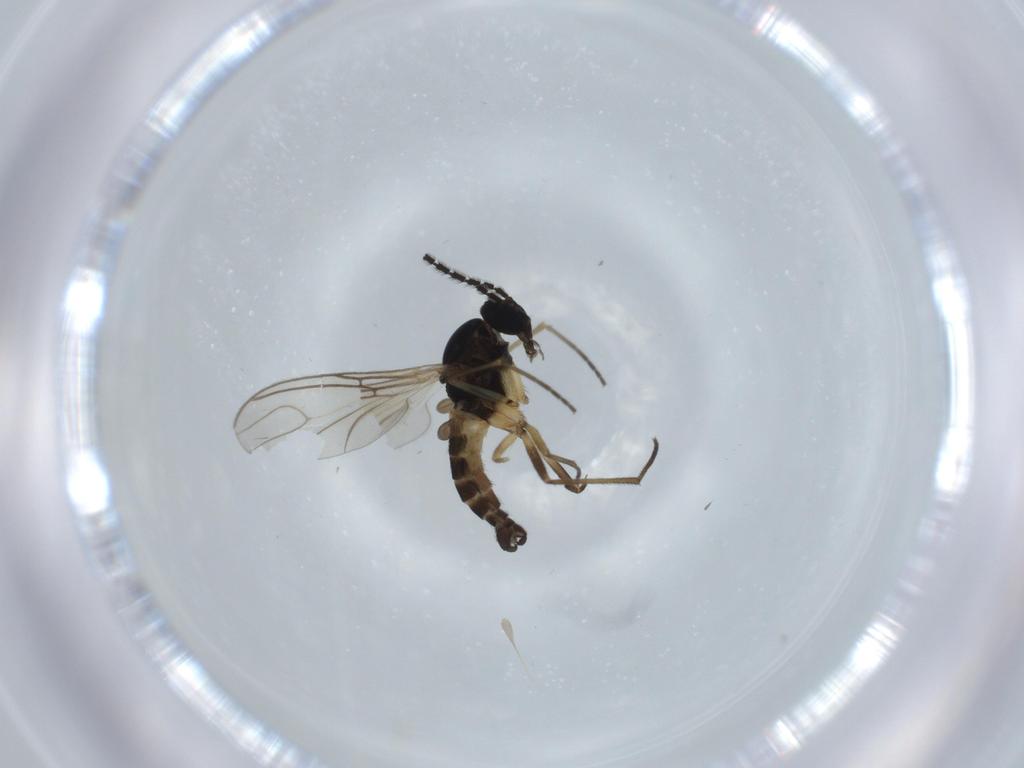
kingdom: Animalia
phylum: Arthropoda
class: Insecta
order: Diptera
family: Sciaridae
